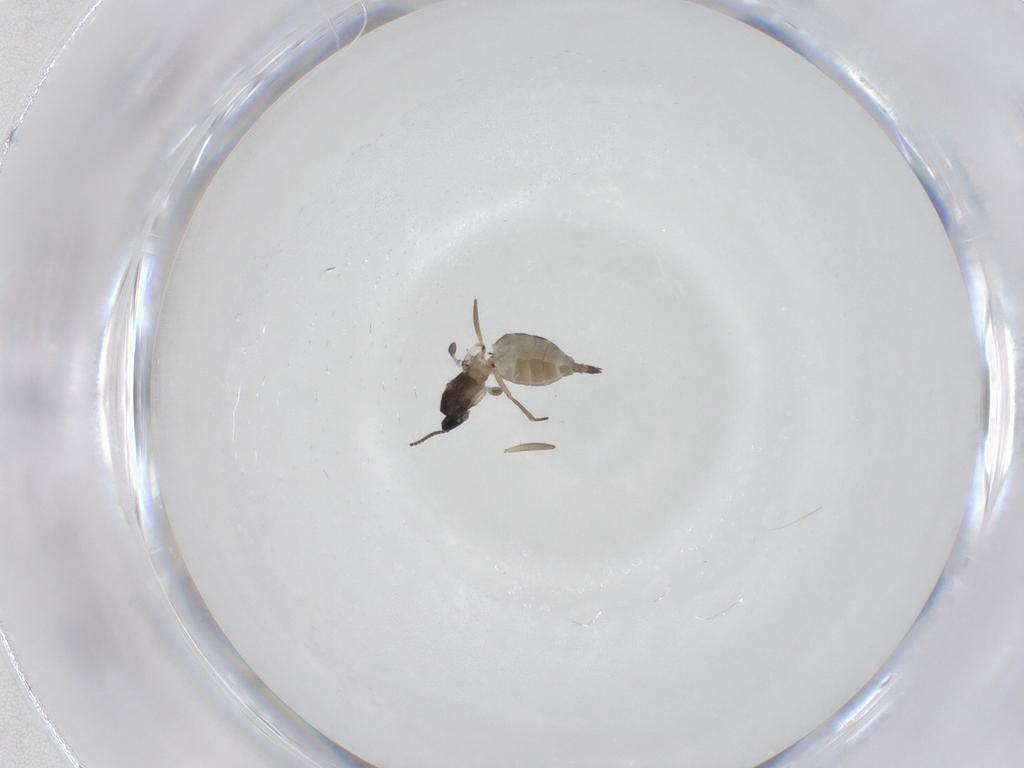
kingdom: Animalia
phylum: Arthropoda
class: Insecta
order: Diptera
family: Sciaridae
